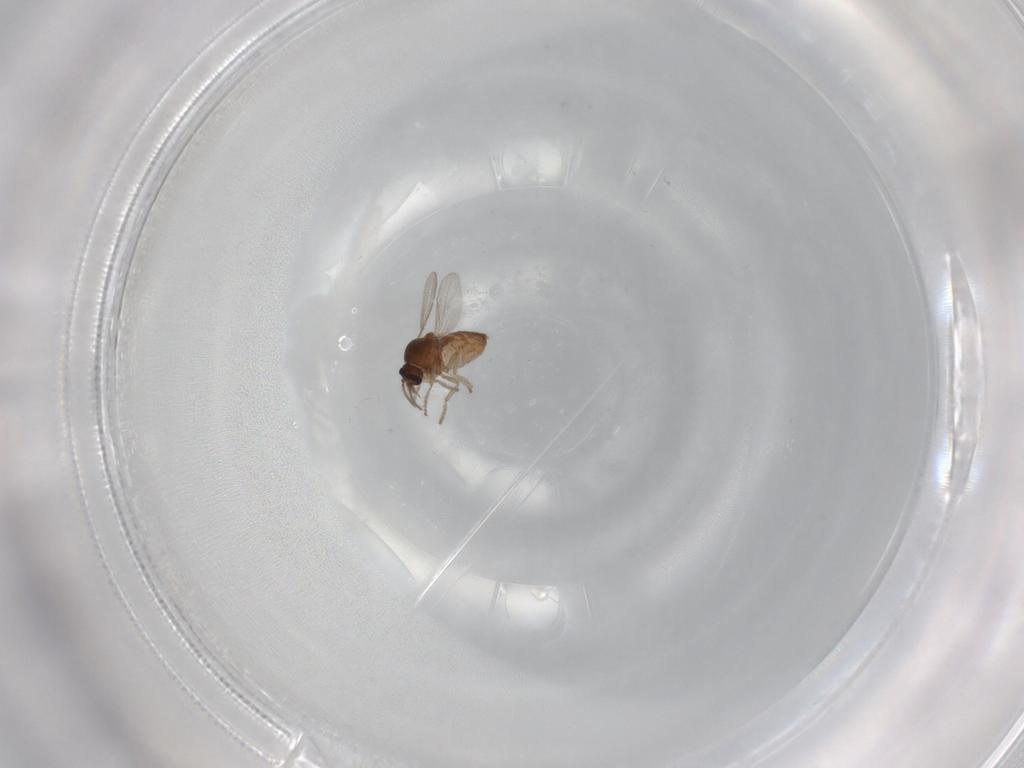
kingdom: Animalia
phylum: Arthropoda
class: Insecta
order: Diptera
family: Ceratopogonidae
